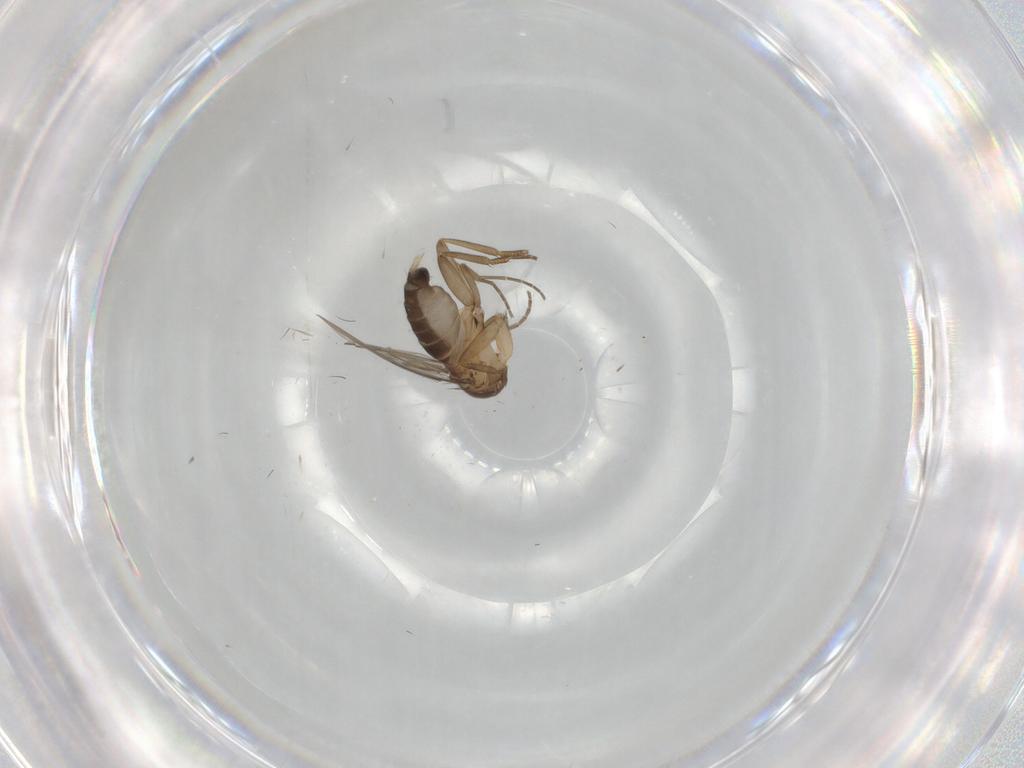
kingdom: Animalia
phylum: Arthropoda
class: Insecta
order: Diptera
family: Phoridae
